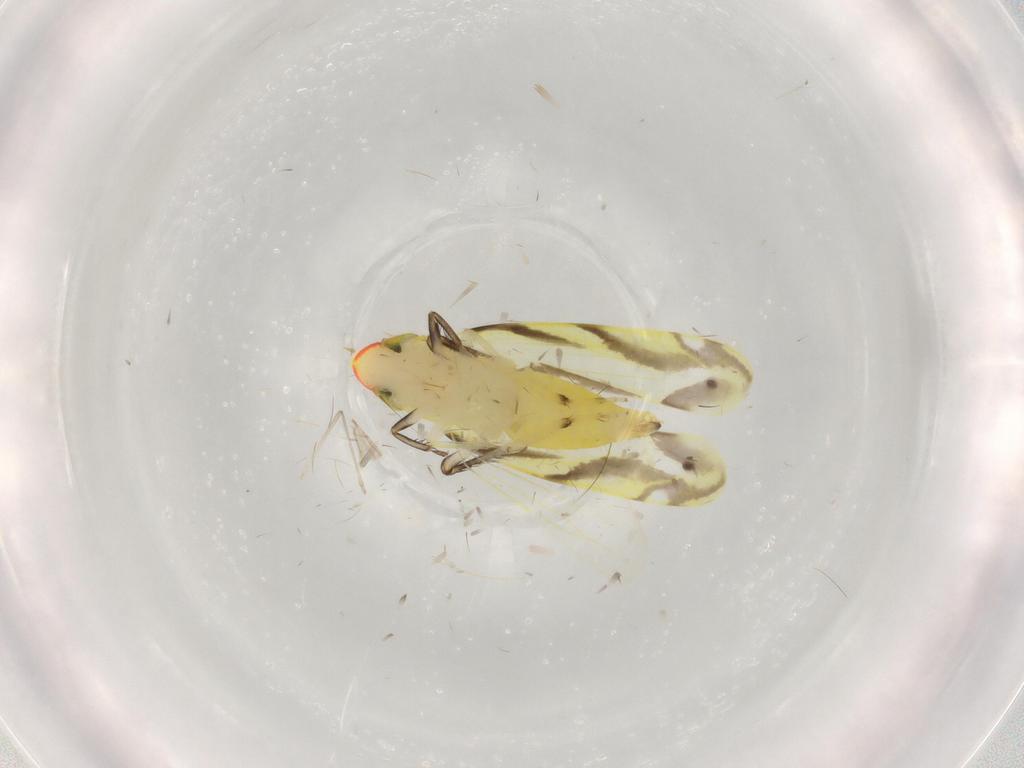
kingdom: Animalia
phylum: Arthropoda
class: Insecta
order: Hemiptera
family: Cicadellidae
